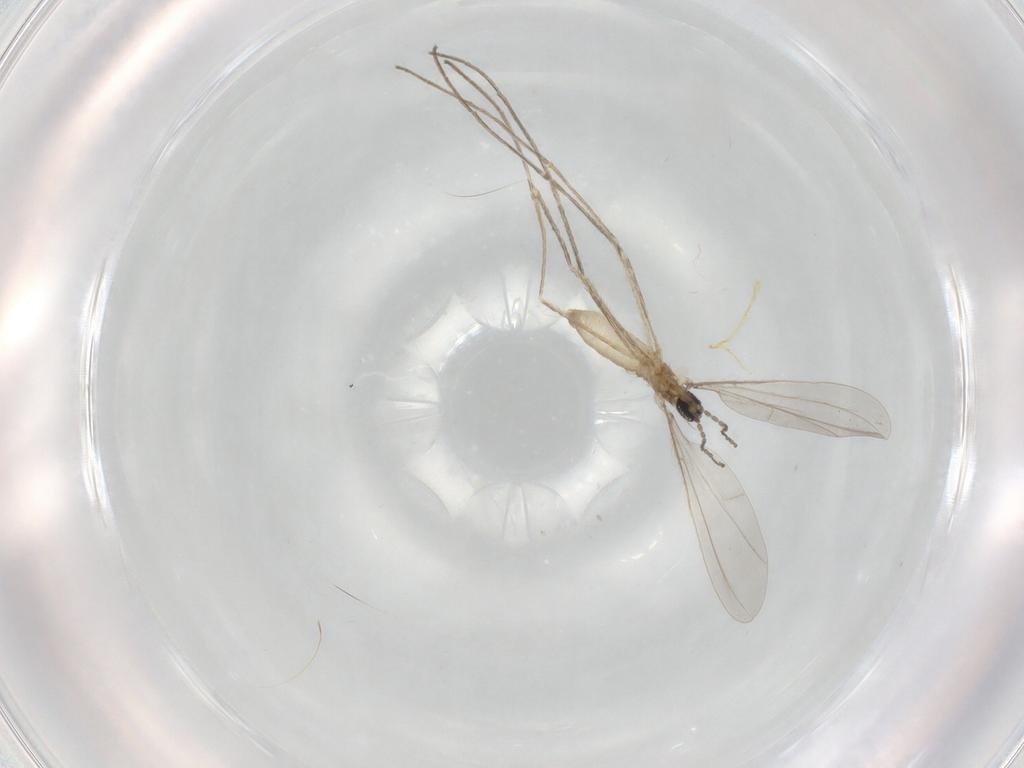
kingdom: Animalia
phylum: Arthropoda
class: Insecta
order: Diptera
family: Cecidomyiidae
